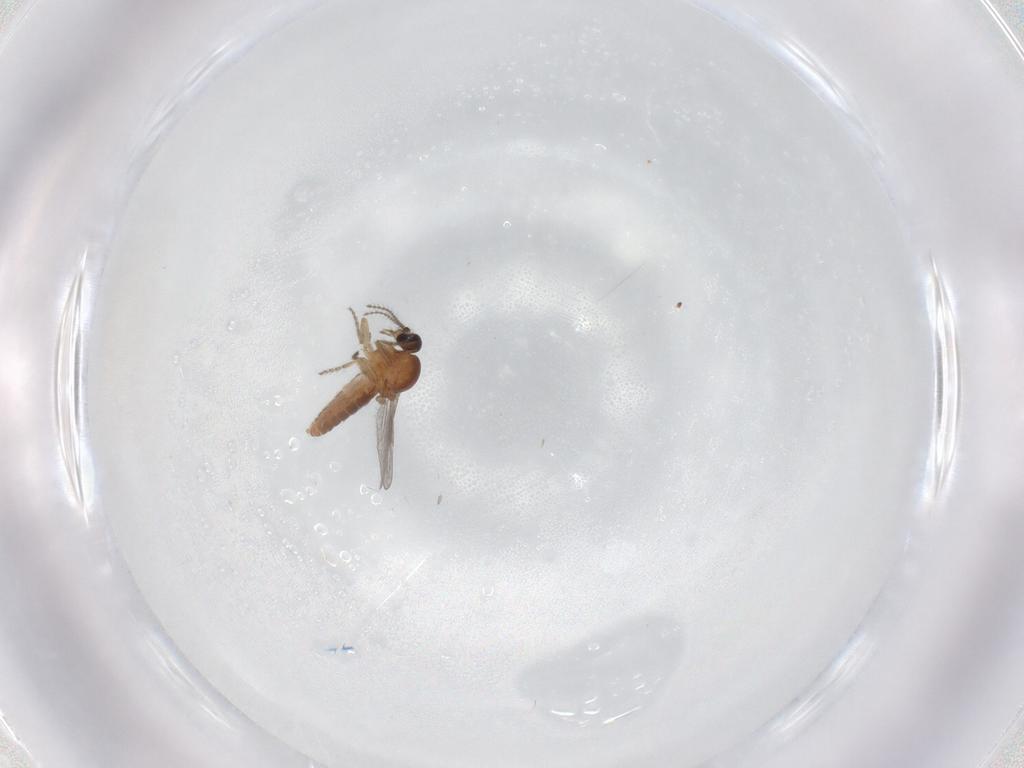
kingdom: Animalia
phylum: Arthropoda
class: Insecta
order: Diptera
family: Ceratopogonidae
